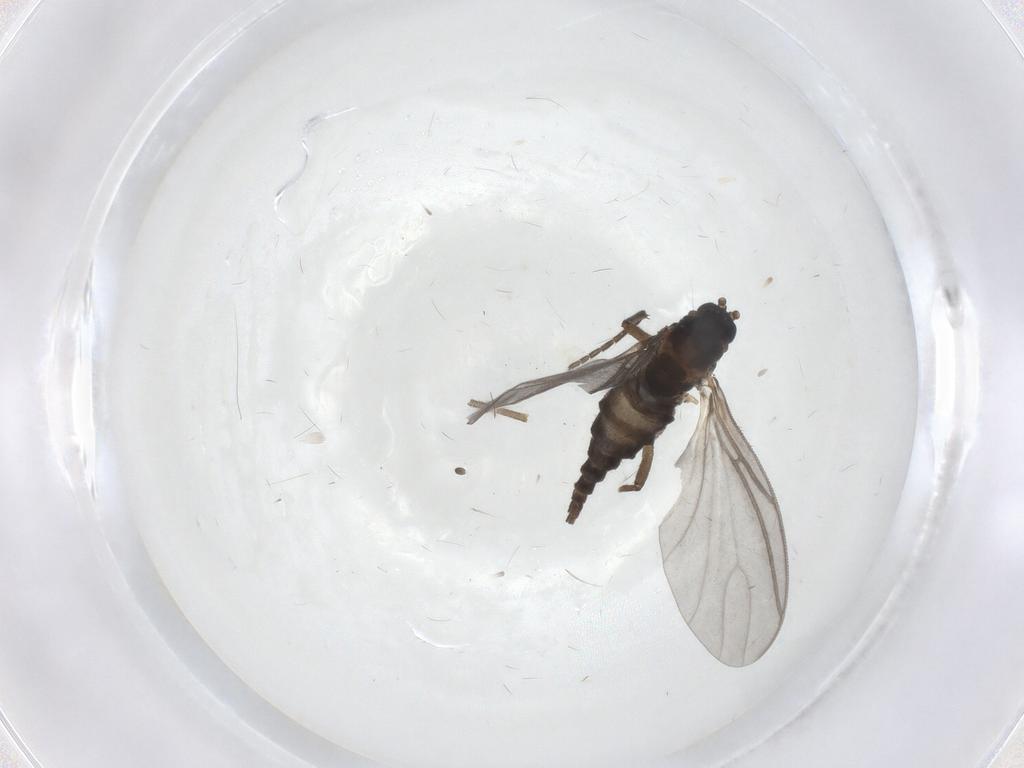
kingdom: Animalia
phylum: Arthropoda
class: Insecta
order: Diptera
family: Sciaridae
